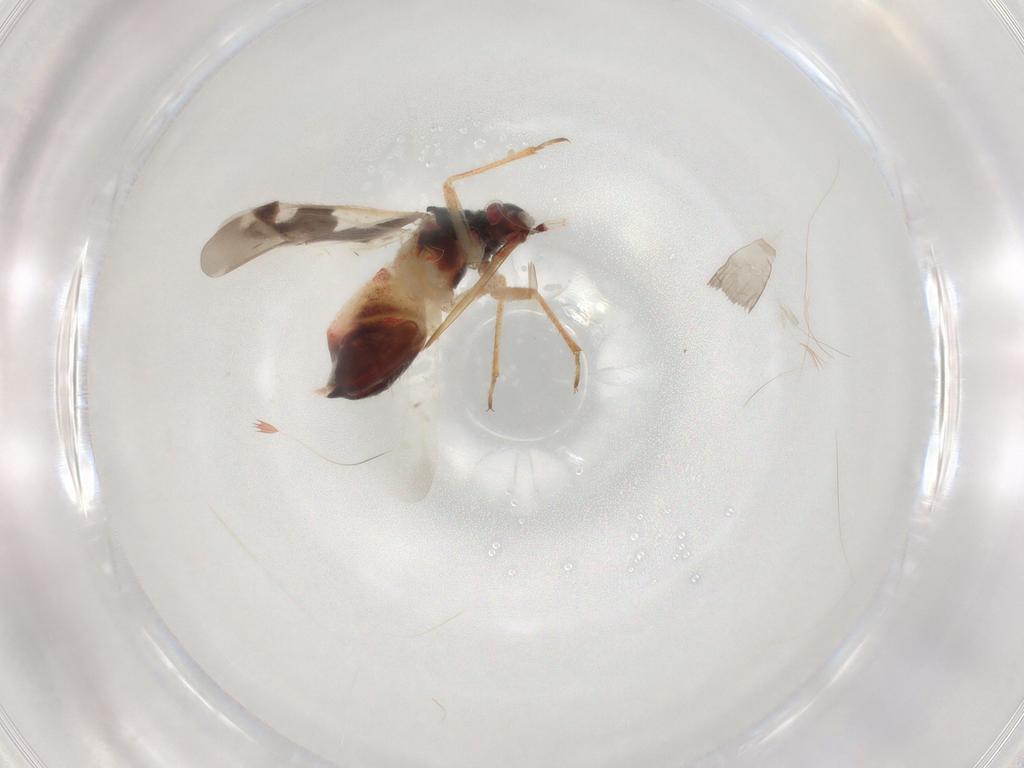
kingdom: Animalia
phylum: Arthropoda
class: Insecta
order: Hemiptera
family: Miridae
